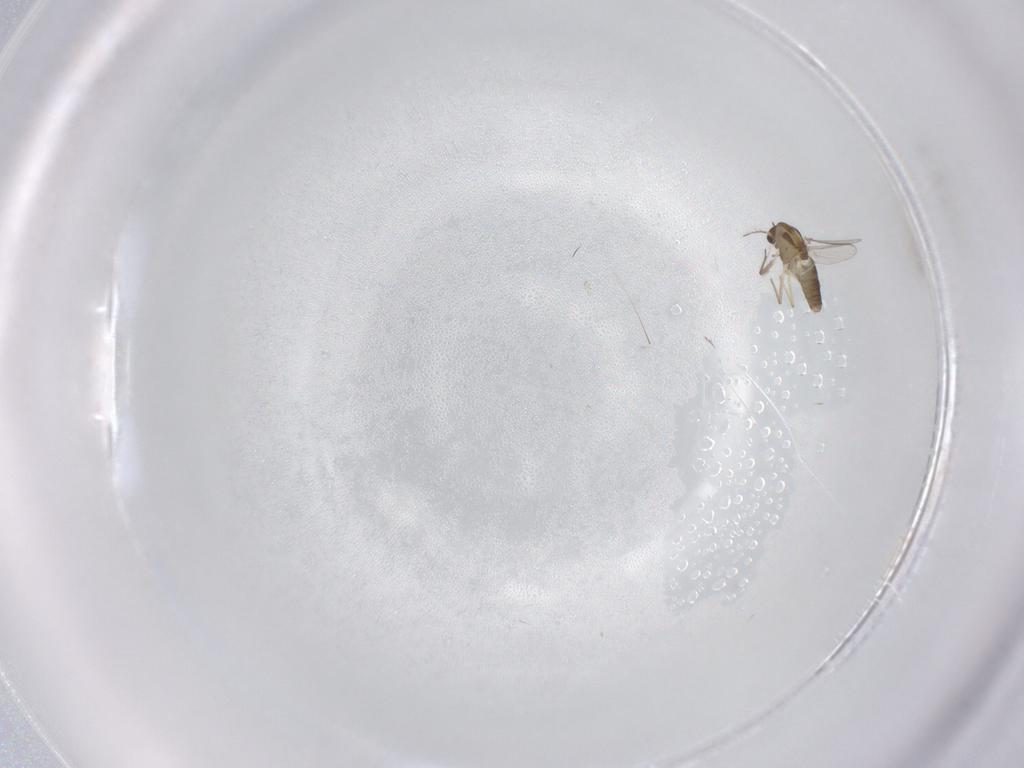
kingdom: Animalia
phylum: Arthropoda
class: Insecta
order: Diptera
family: Chironomidae
